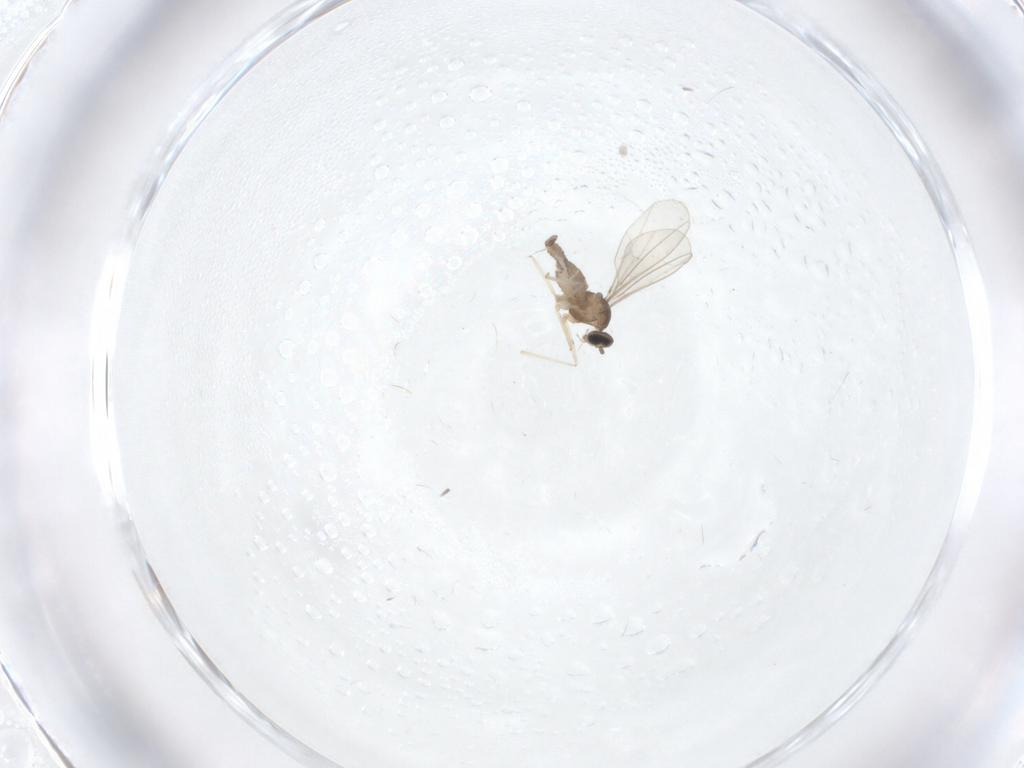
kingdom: Animalia
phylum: Arthropoda
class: Insecta
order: Diptera
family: Cecidomyiidae
